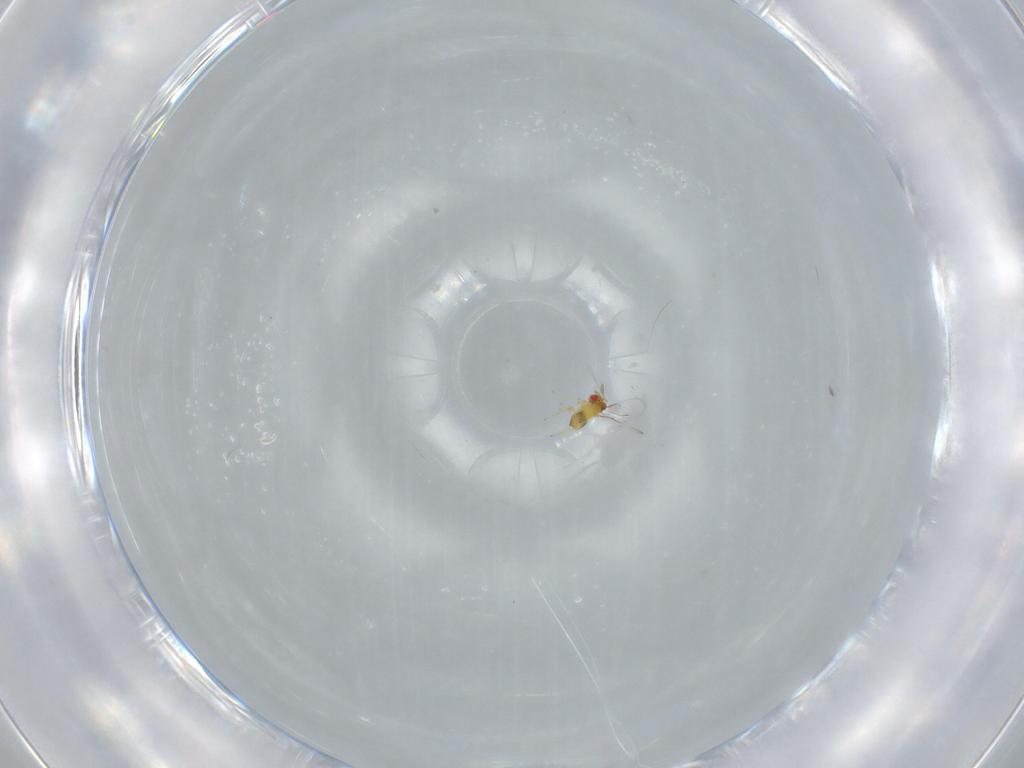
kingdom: Animalia
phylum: Arthropoda
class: Insecta
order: Hymenoptera
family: Trichogrammatidae
